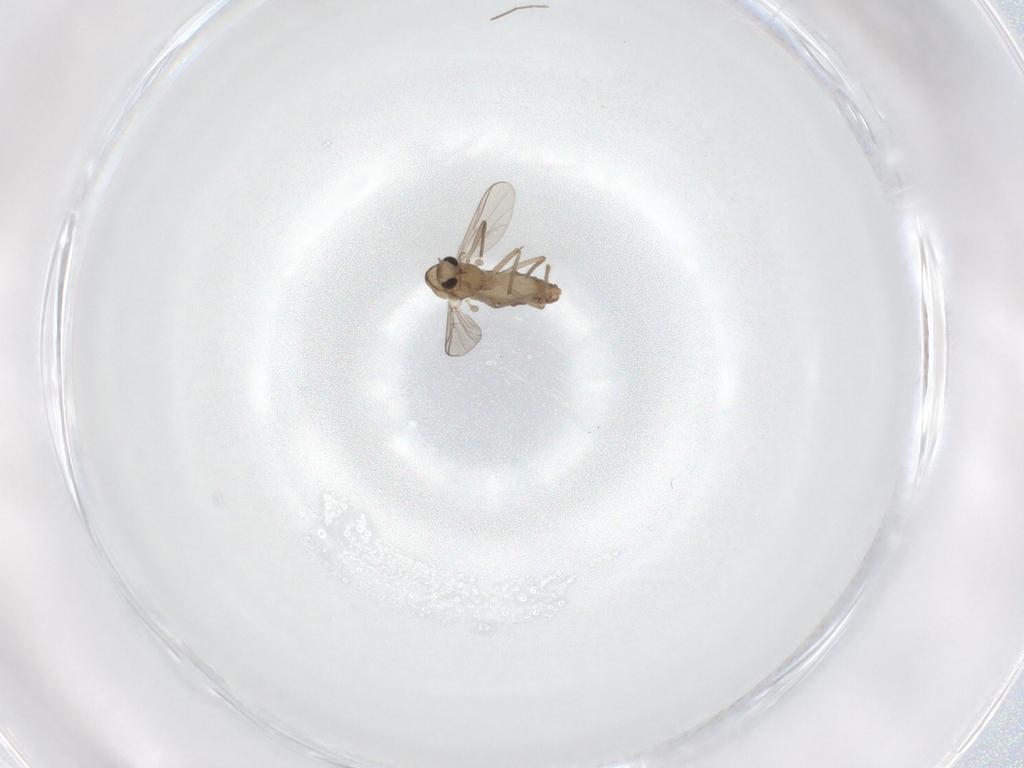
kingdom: Animalia
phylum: Arthropoda
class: Insecta
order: Diptera
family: Chironomidae
